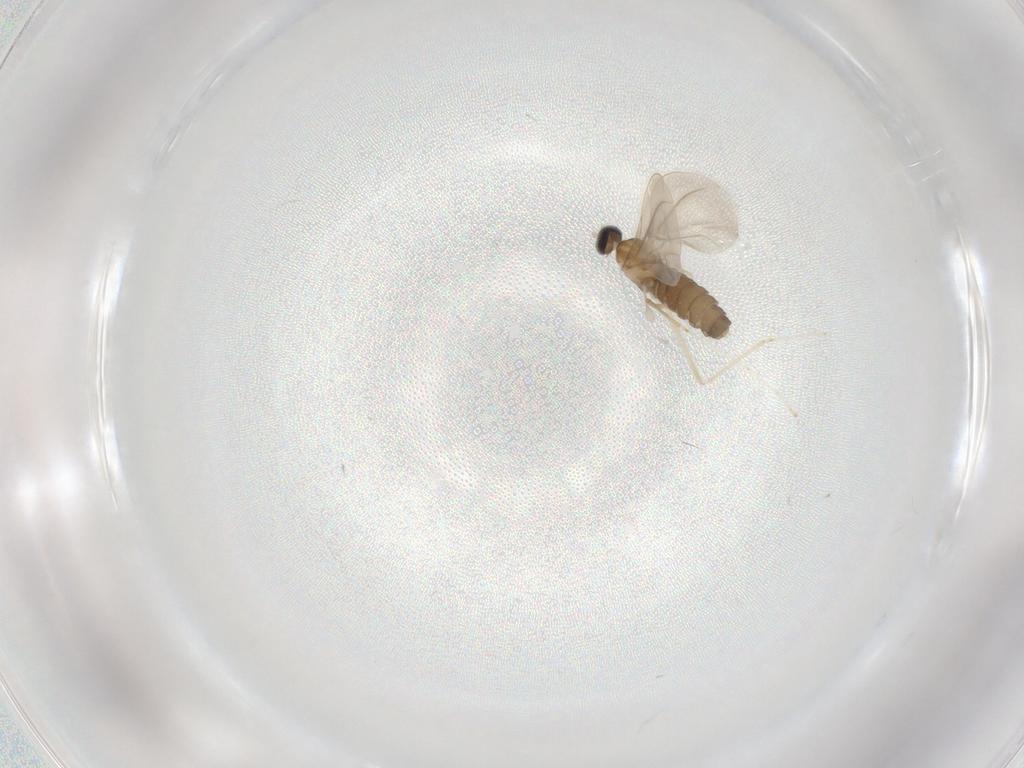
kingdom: Animalia
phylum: Arthropoda
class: Insecta
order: Diptera
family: Cecidomyiidae
